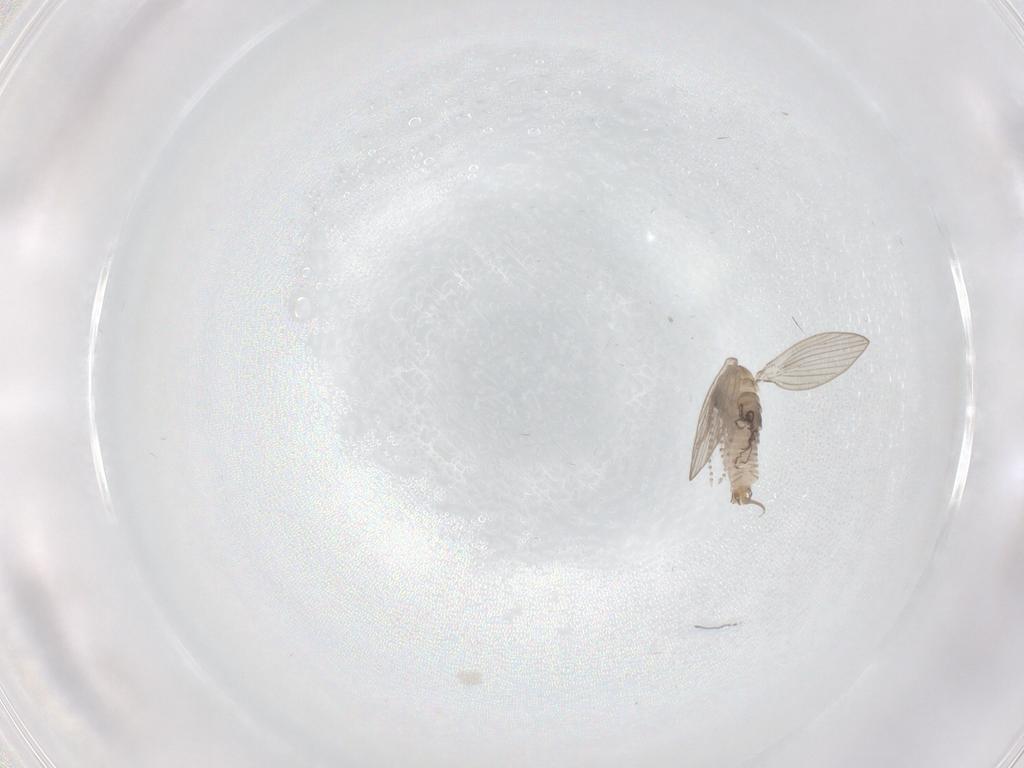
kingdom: Animalia
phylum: Arthropoda
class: Insecta
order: Diptera
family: Psychodidae
